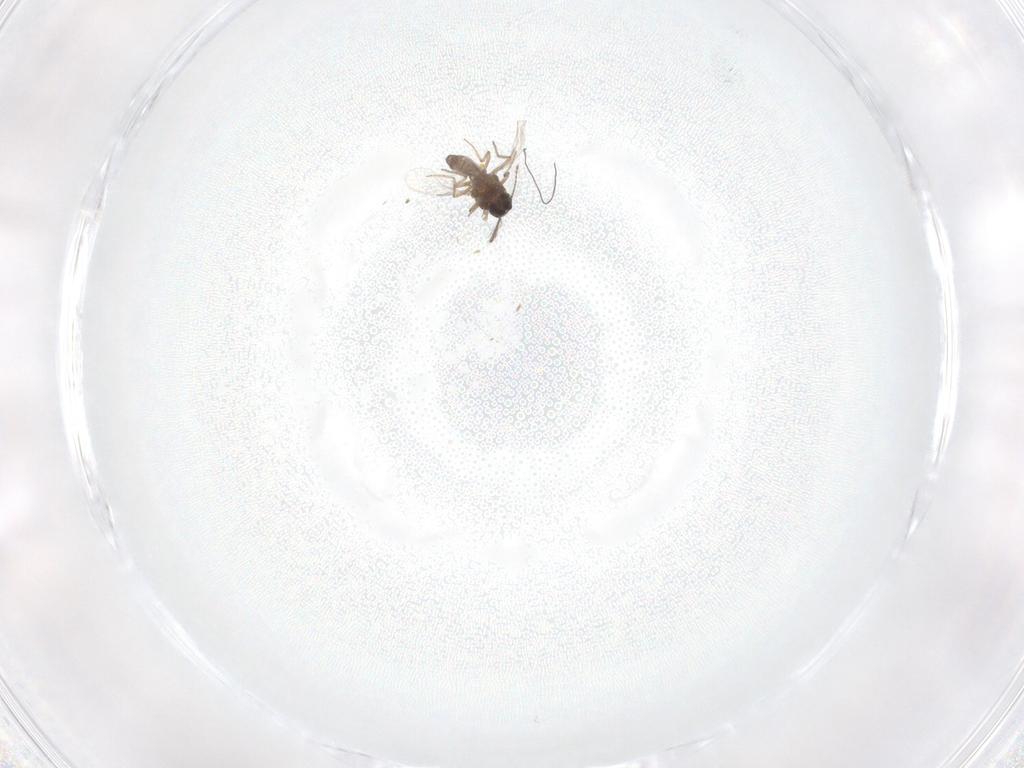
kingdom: Animalia
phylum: Arthropoda
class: Insecta
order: Diptera
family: Ceratopogonidae
